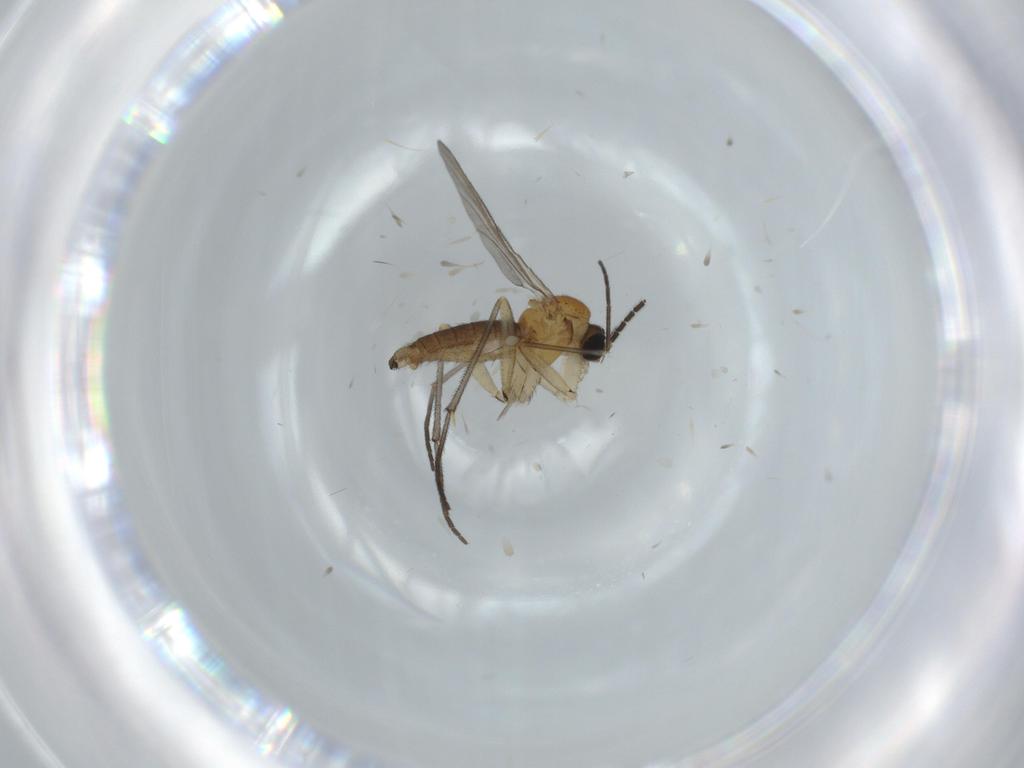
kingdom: Animalia
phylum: Arthropoda
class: Insecta
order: Diptera
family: Sciaridae
